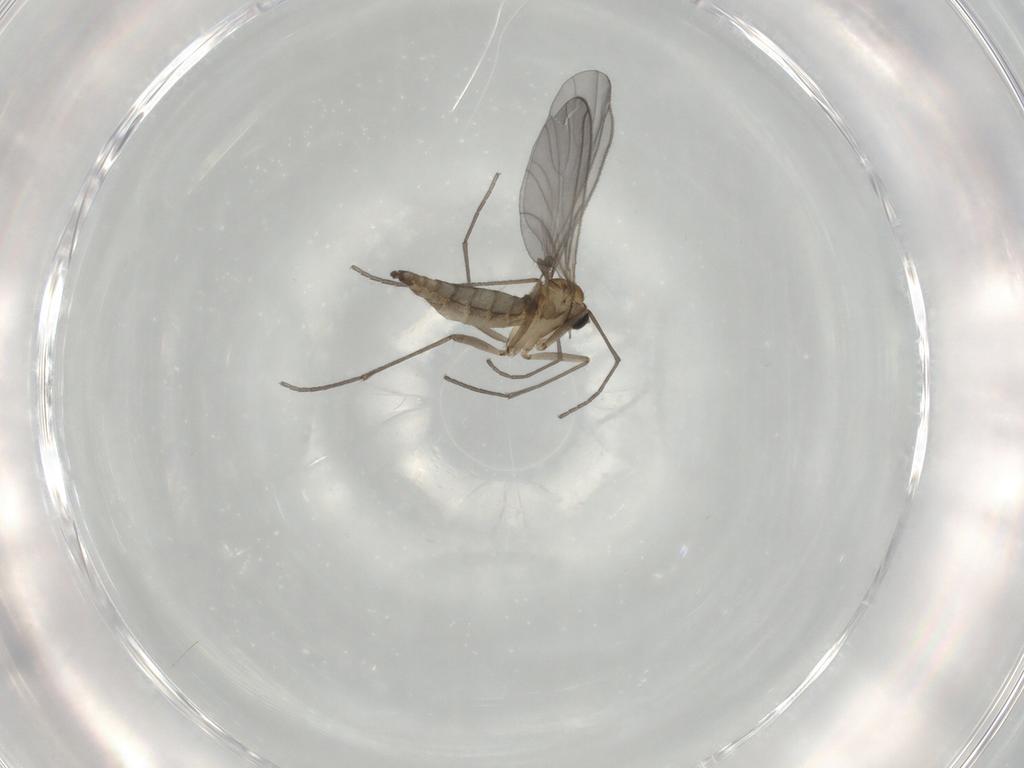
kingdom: Animalia
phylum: Arthropoda
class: Insecta
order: Diptera
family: Sciaridae
